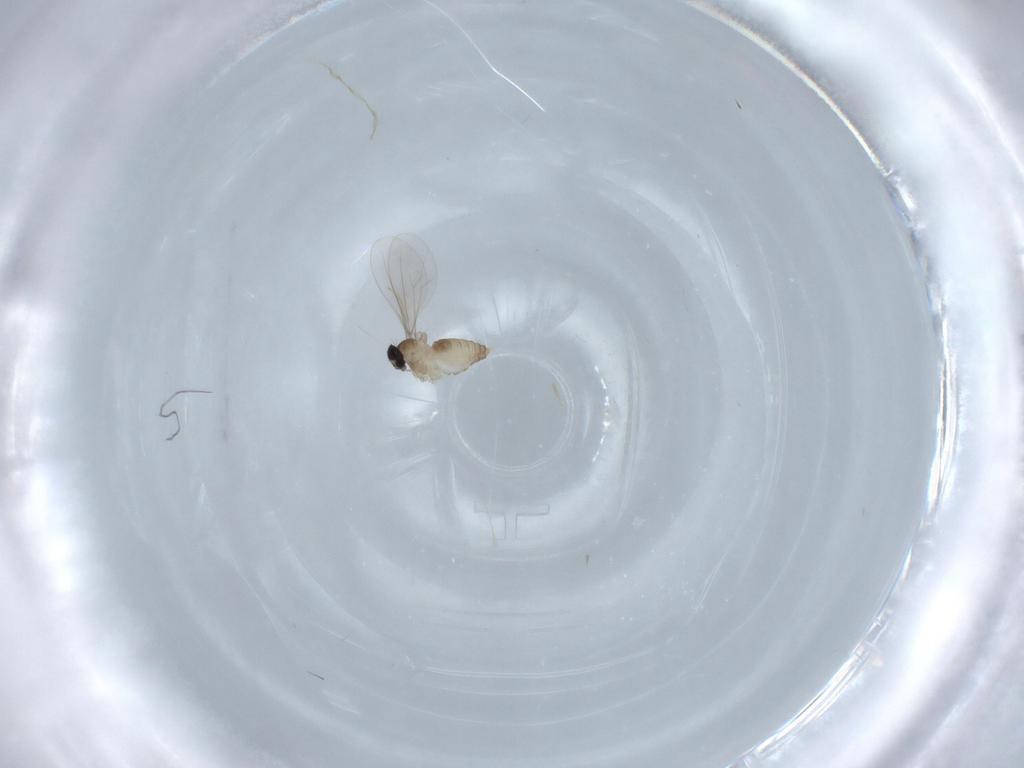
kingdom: Animalia
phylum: Arthropoda
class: Insecta
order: Diptera
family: Cecidomyiidae
